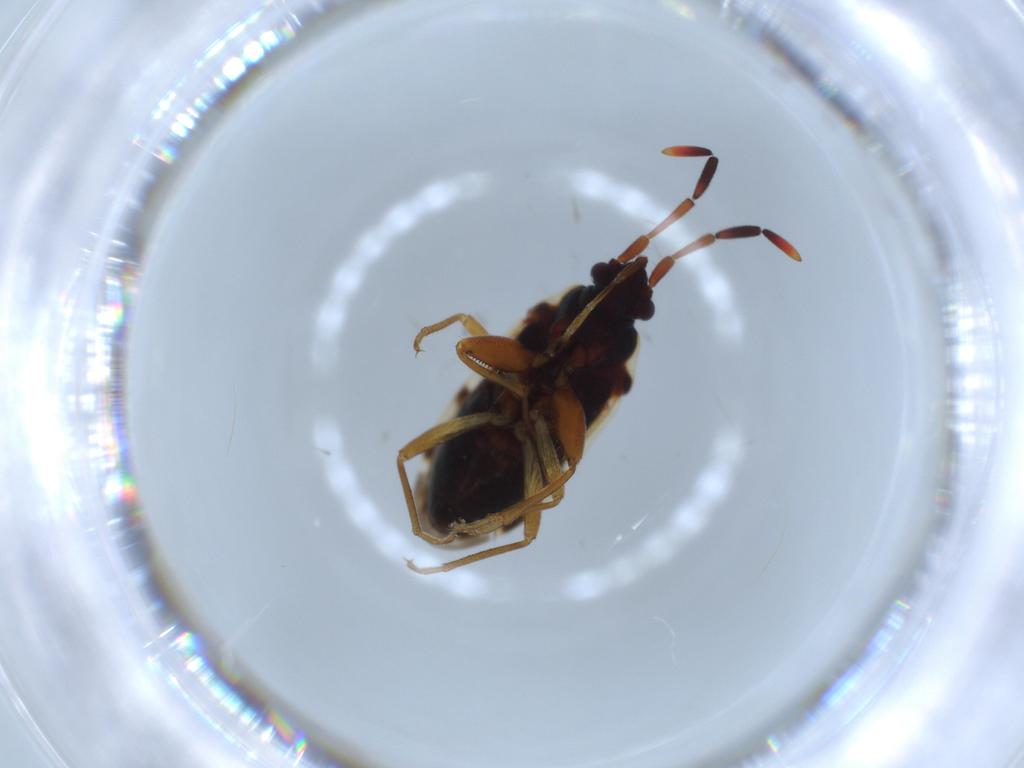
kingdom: Animalia
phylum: Arthropoda
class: Insecta
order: Hemiptera
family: Rhyparochromidae
